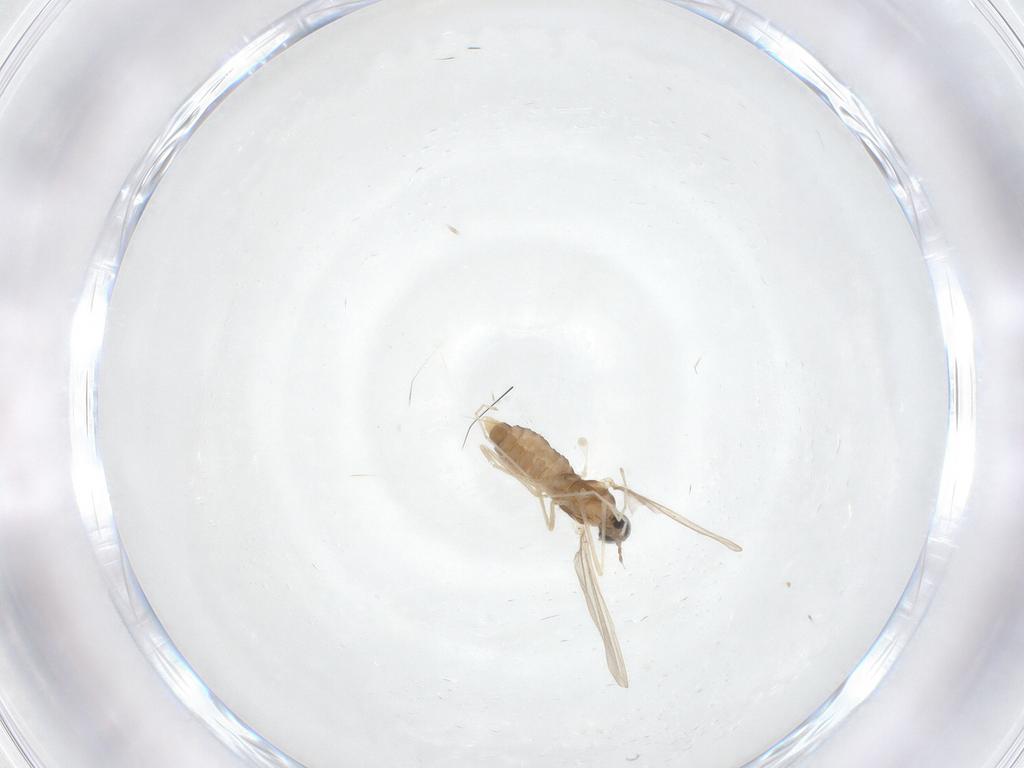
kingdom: Animalia
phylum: Arthropoda
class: Insecta
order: Diptera
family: Cecidomyiidae
